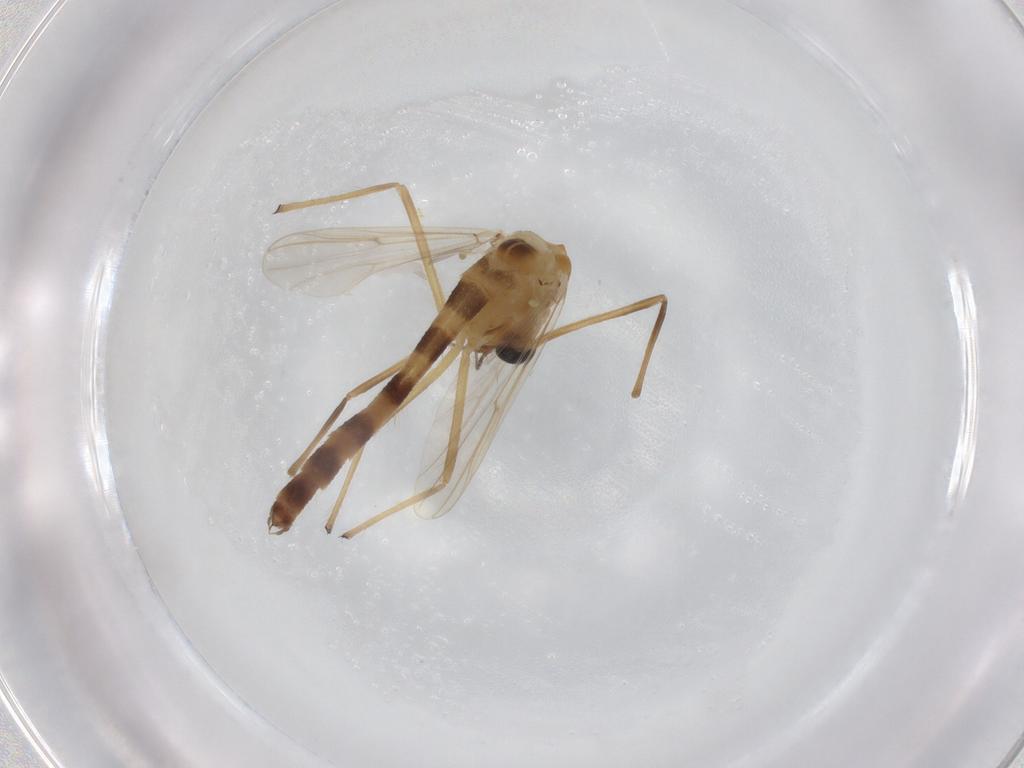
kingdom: Animalia
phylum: Arthropoda
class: Insecta
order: Diptera
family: Chironomidae
